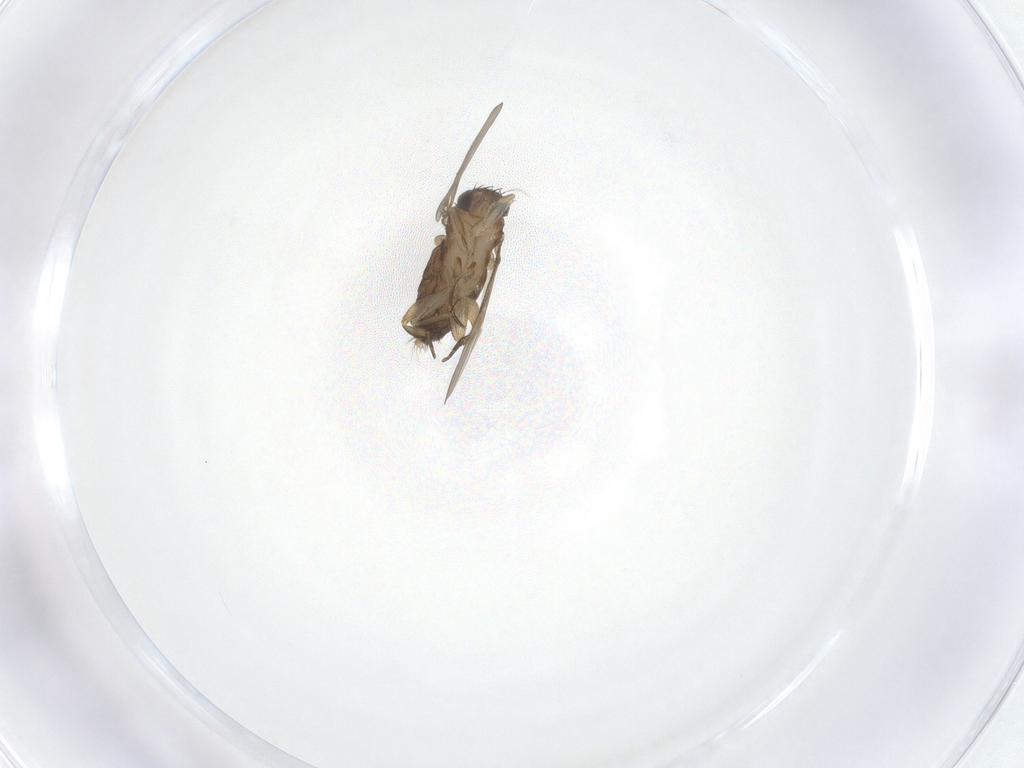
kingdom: Animalia
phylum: Arthropoda
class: Insecta
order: Diptera
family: Phoridae
